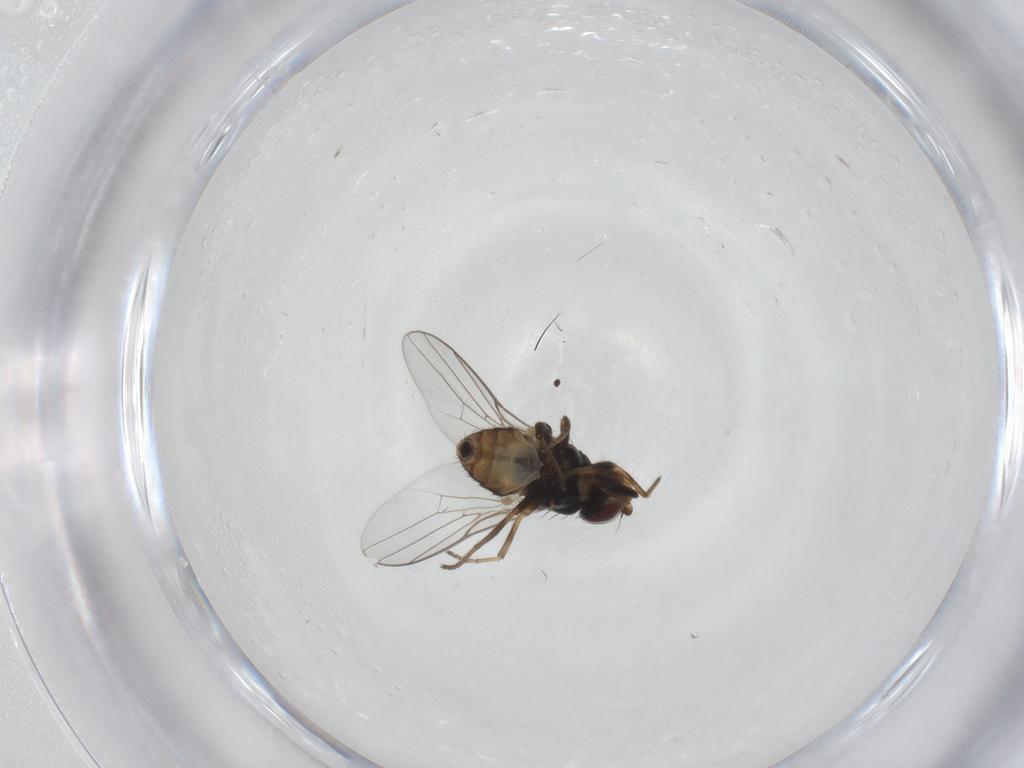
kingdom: Animalia
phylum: Arthropoda
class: Insecta
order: Diptera
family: Chloropidae
